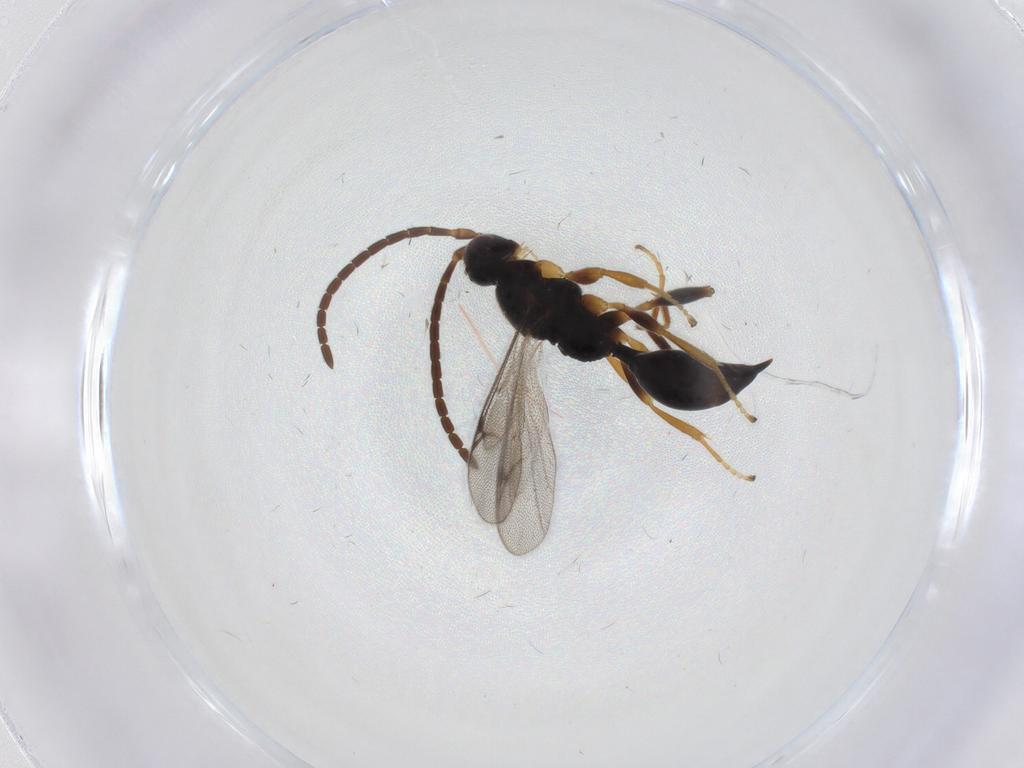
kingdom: Animalia
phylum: Arthropoda
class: Insecta
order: Hymenoptera
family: Proctotrupidae
